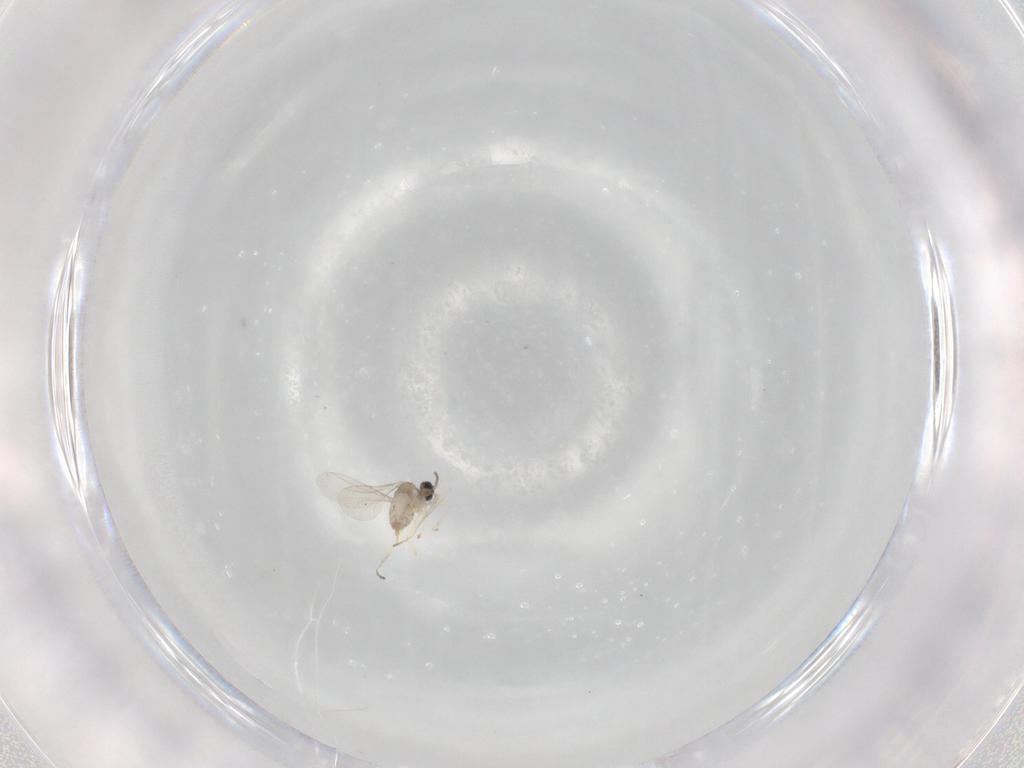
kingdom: Animalia
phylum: Arthropoda
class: Insecta
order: Diptera
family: Cecidomyiidae
